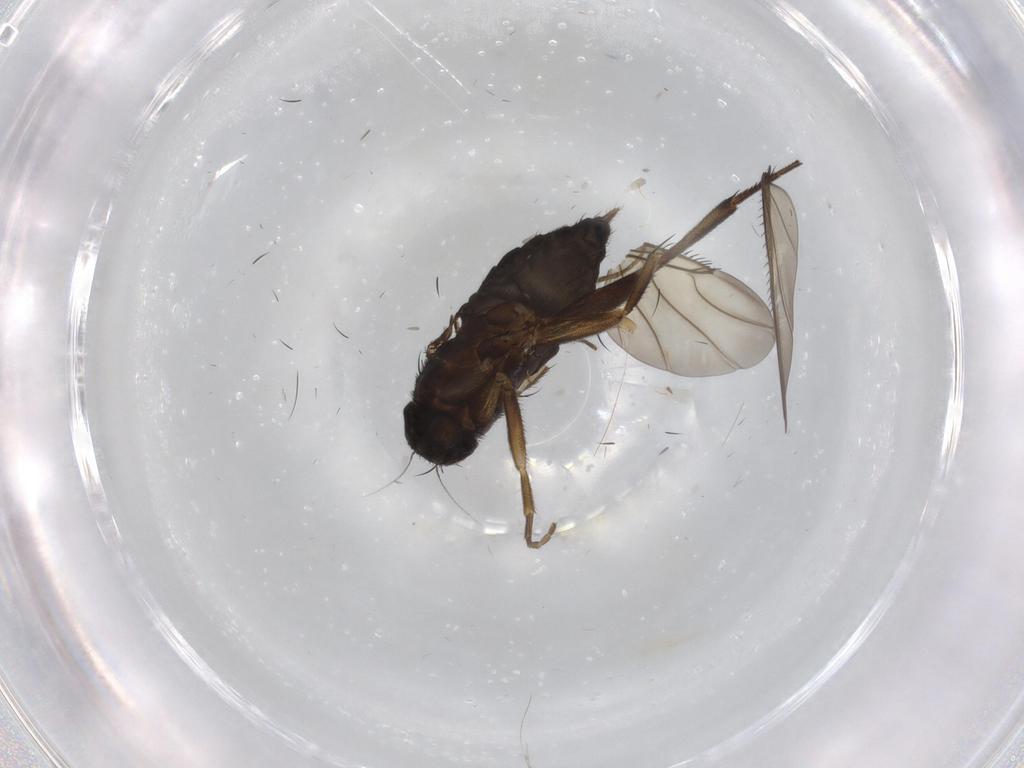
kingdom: Animalia
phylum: Arthropoda
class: Insecta
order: Diptera
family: Phoridae
